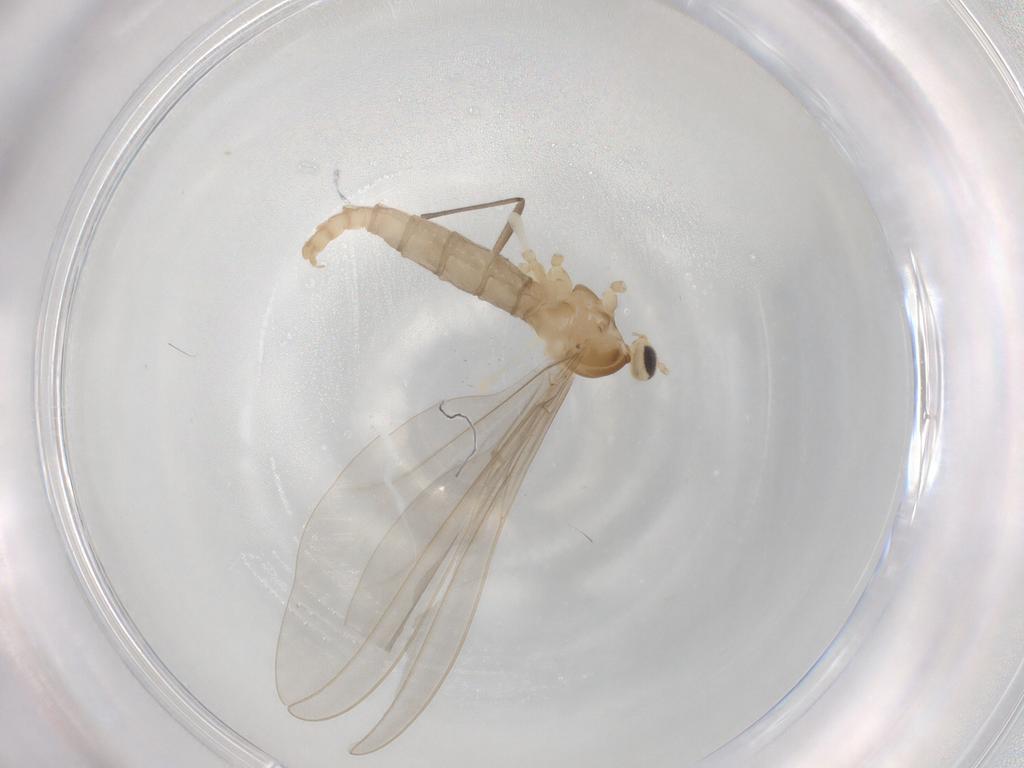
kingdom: Animalia
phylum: Arthropoda
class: Insecta
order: Diptera
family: Cecidomyiidae
